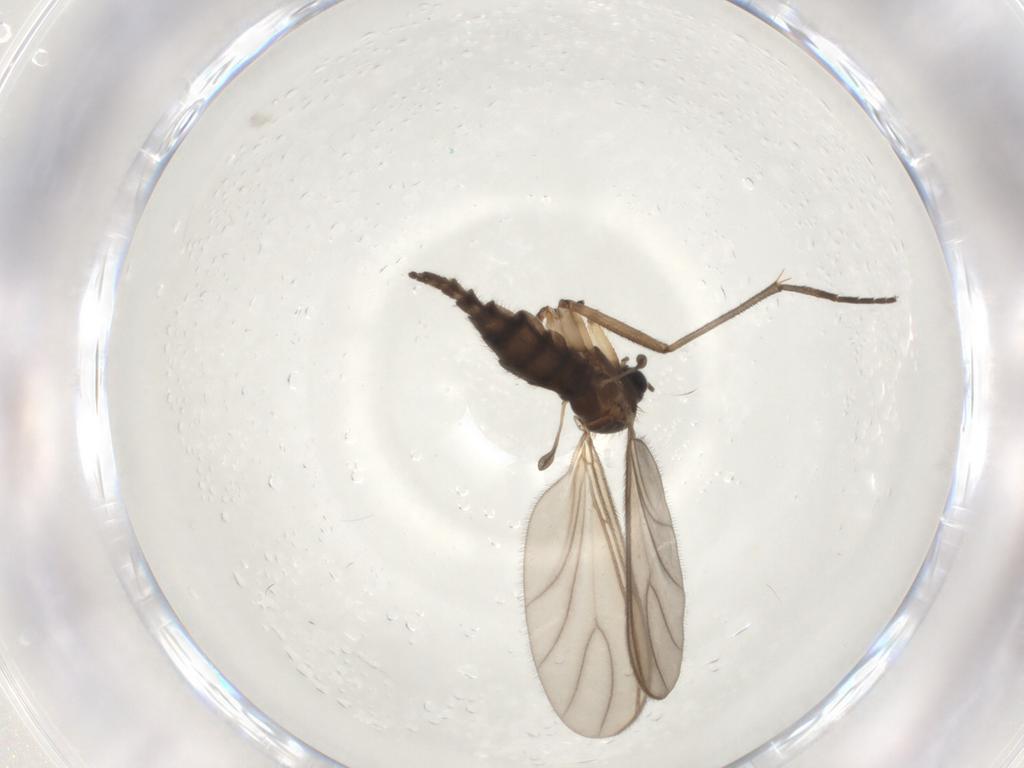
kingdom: Animalia
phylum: Arthropoda
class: Insecta
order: Diptera
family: Sciaridae
